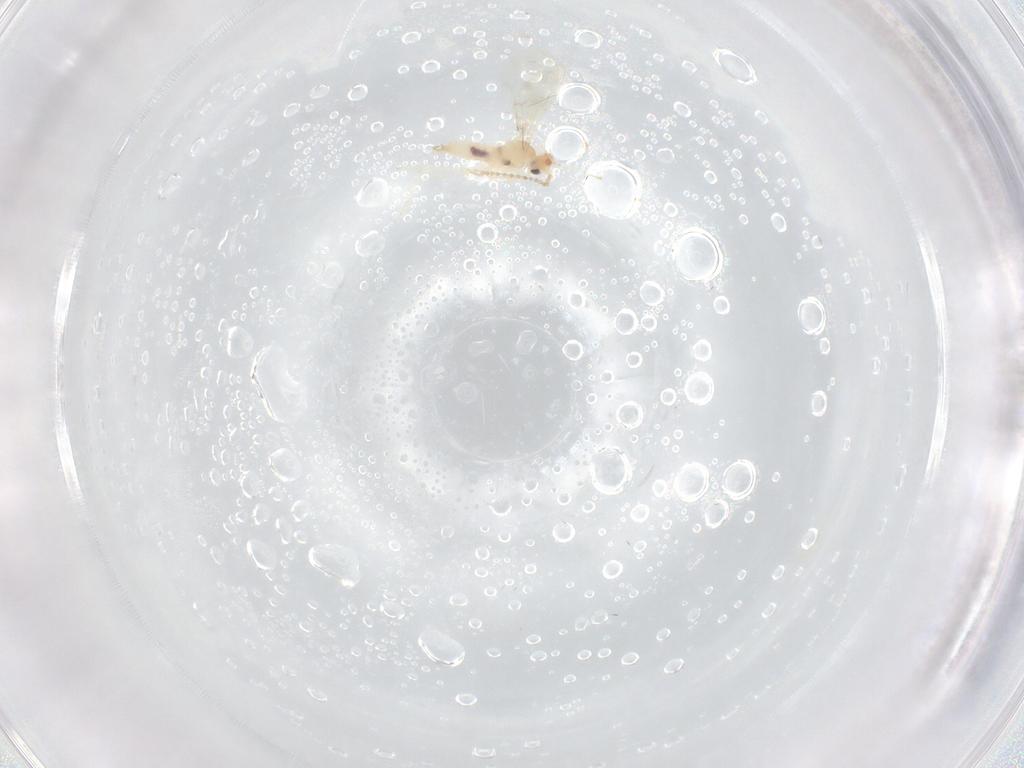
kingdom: Animalia
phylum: Arthropoda
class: Insecta
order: Diptera
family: Cecidomyiidae
